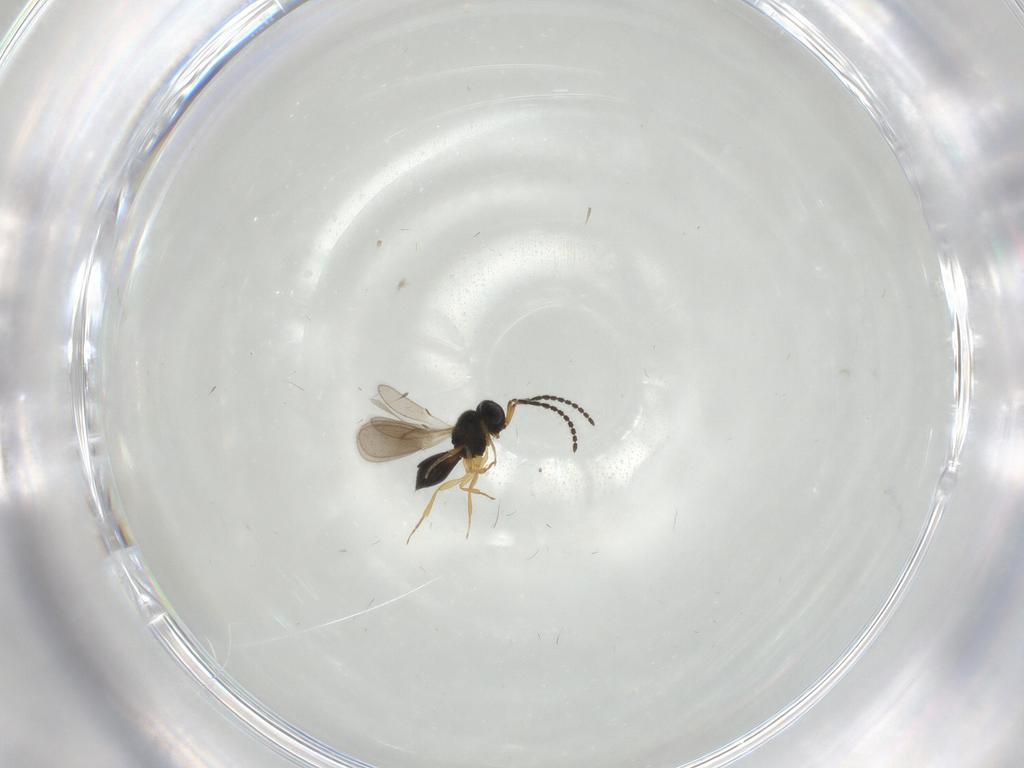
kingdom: Animalia
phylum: Arthropoda
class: Insecta
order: Hymenoptera
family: Scelionidae
